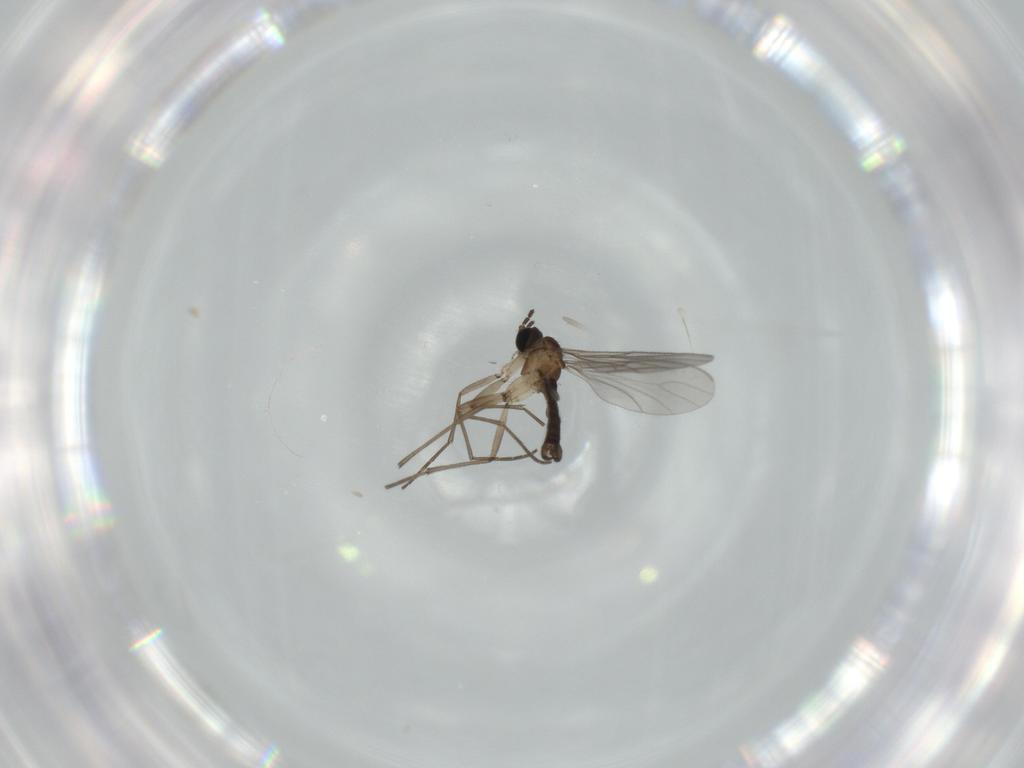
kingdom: Animalia
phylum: Arthropoda
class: Insecta
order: Diptera
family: Sciaridae
